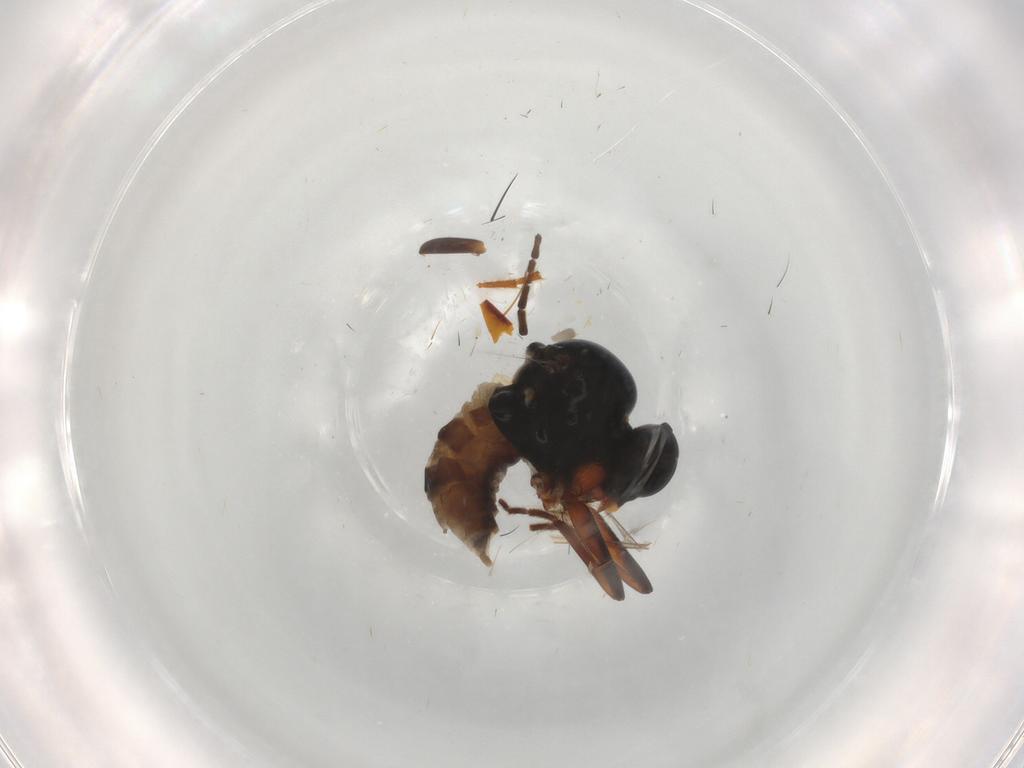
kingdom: Animalia
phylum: Arthropoda
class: Insecta
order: Diptera
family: Hybotidae
